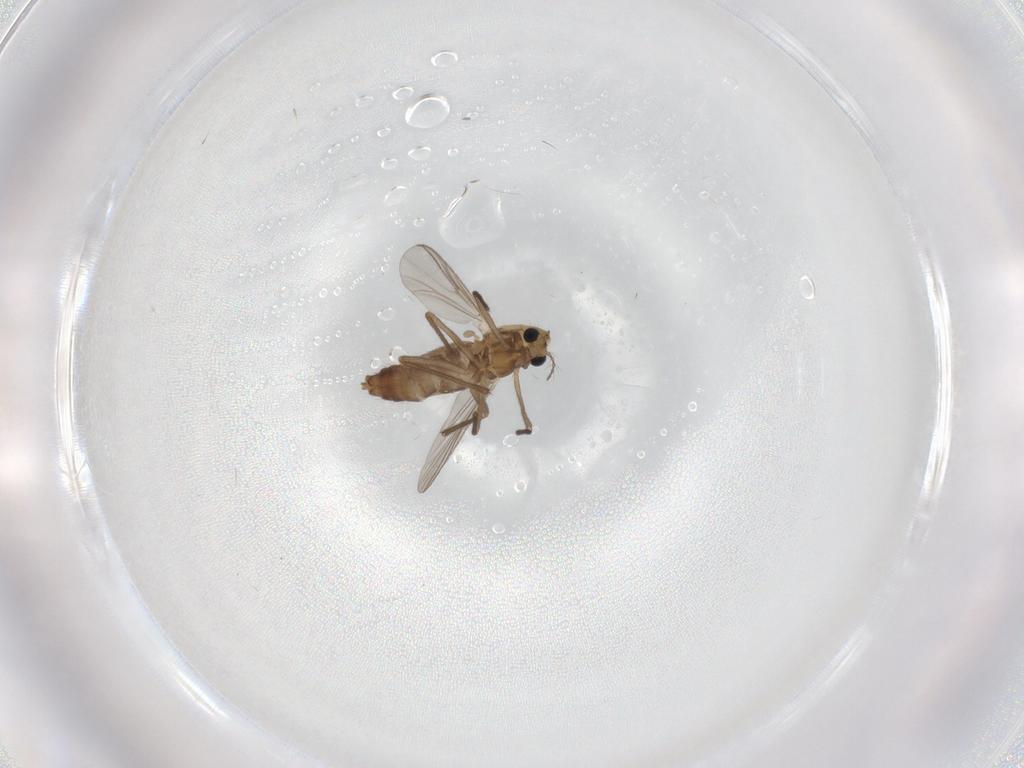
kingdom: Animalia
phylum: Arthropoda
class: Insecta
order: Diptera
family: Chironomidae
